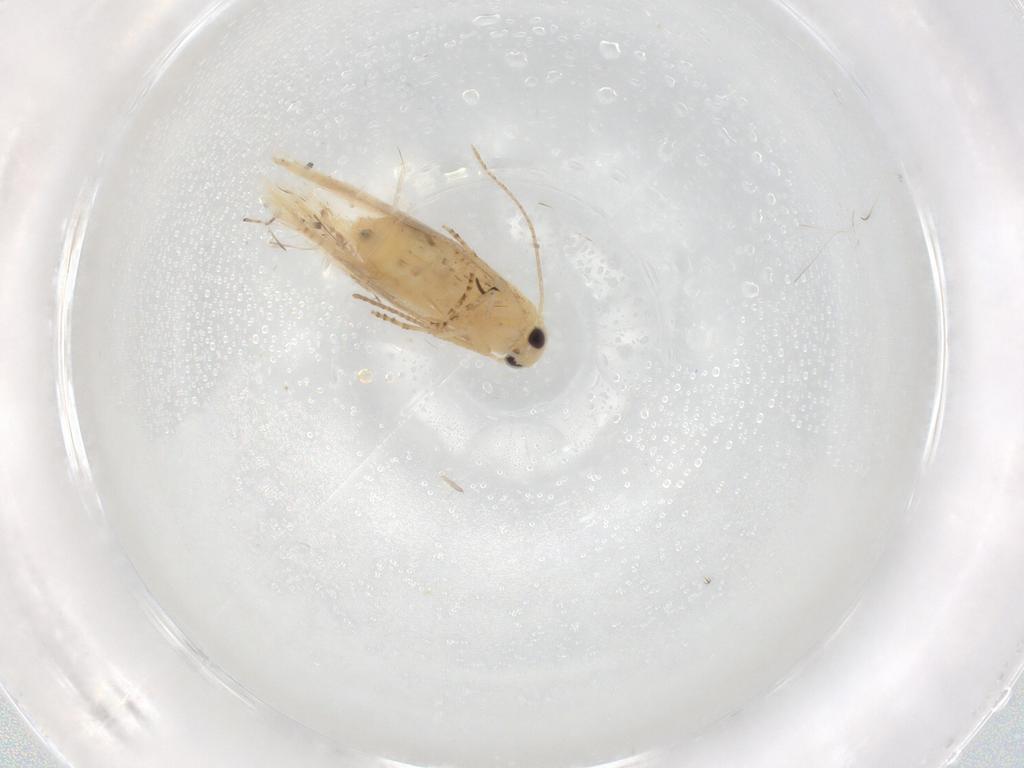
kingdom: Animalia
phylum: Arthropoda
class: Insecta
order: Lepidoptera
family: Depressariidae
